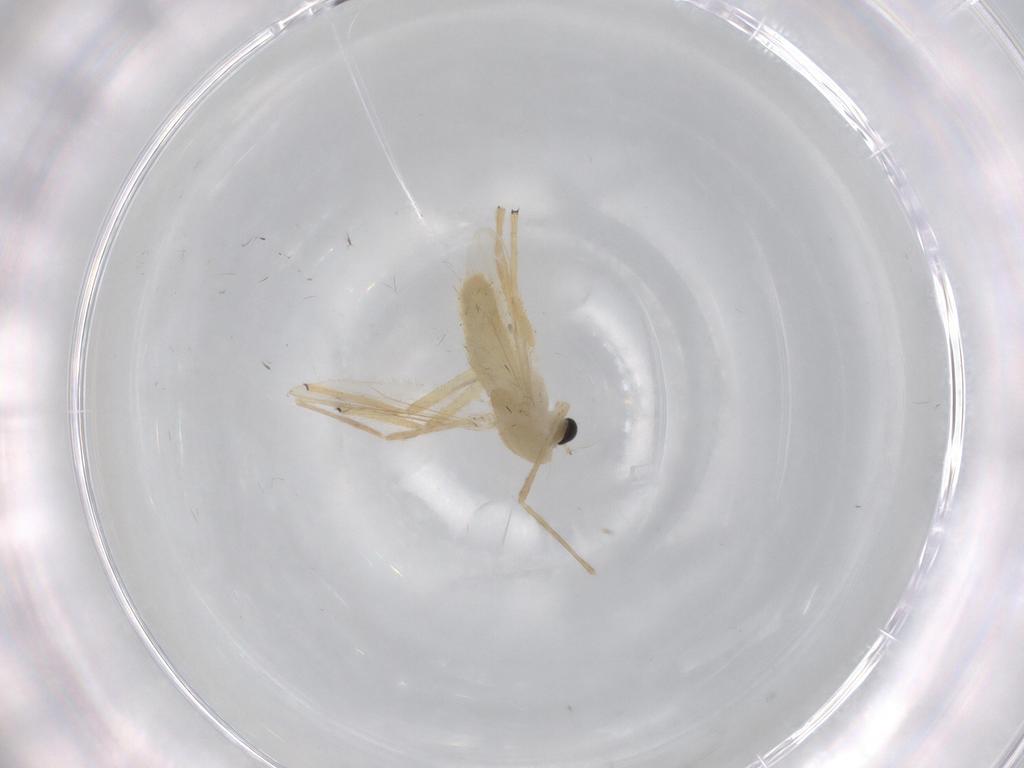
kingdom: Animalia
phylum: Arthropoda
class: Insecta
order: Diptera
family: Chironomidae
